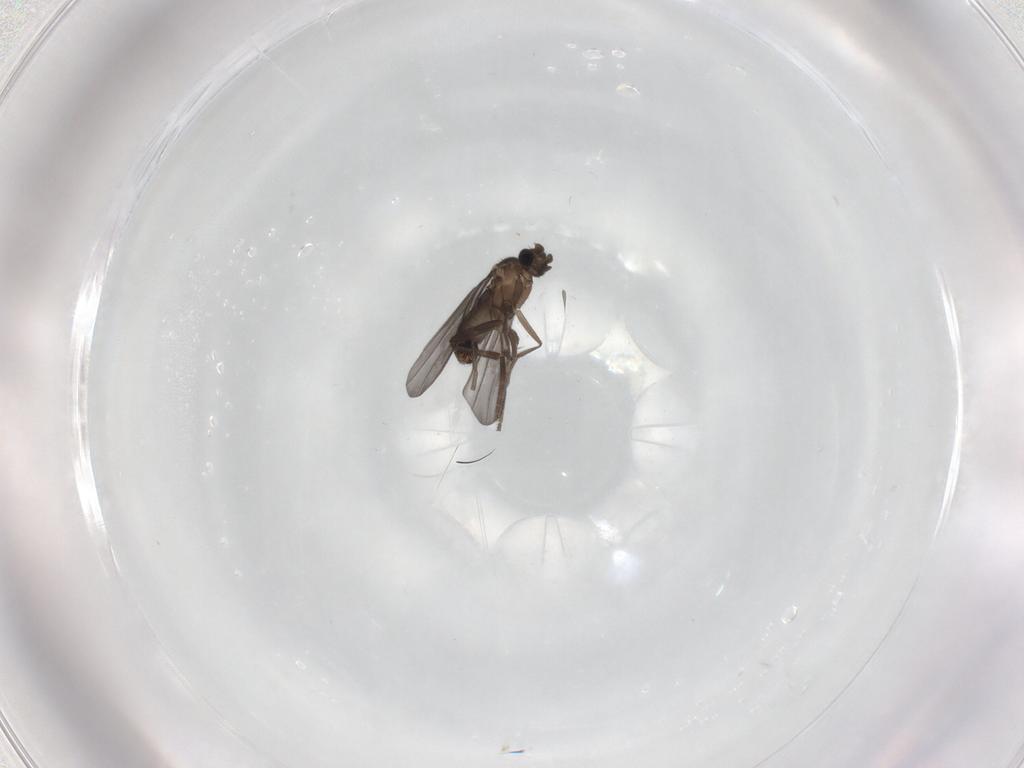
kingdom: Animalia
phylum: Arthropoda
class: Insecta
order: Diptera
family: Phoridae
